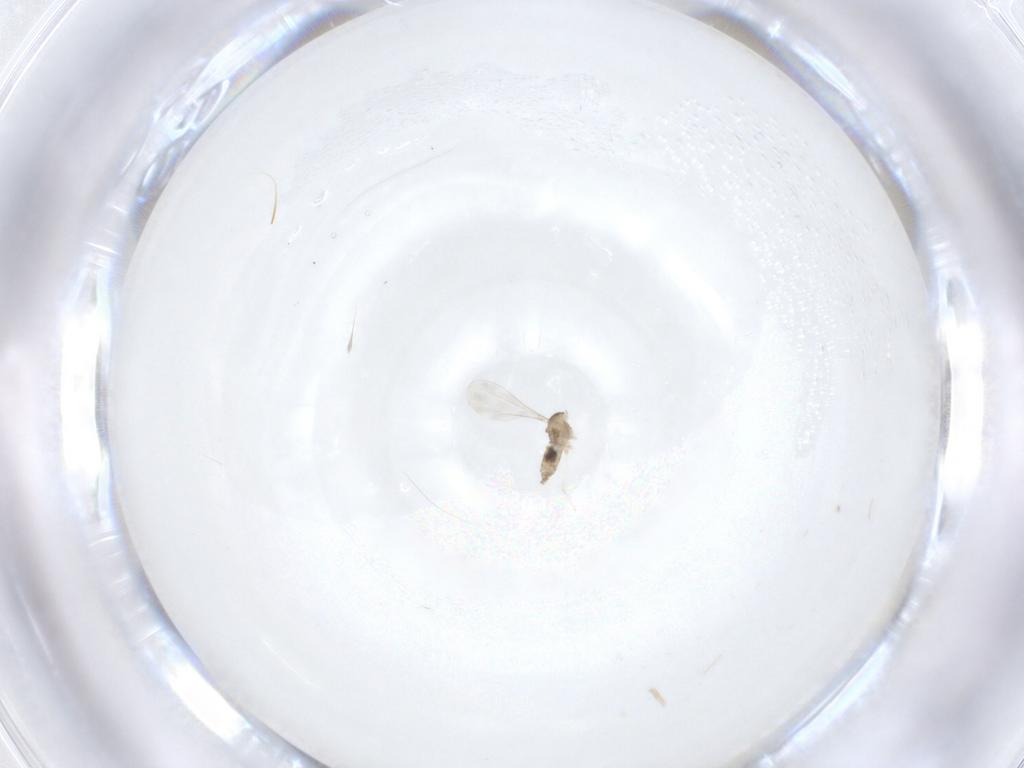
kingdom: Animalia
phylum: Arthropoda
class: Insecta
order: Diptera
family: Cecidomyiidae
